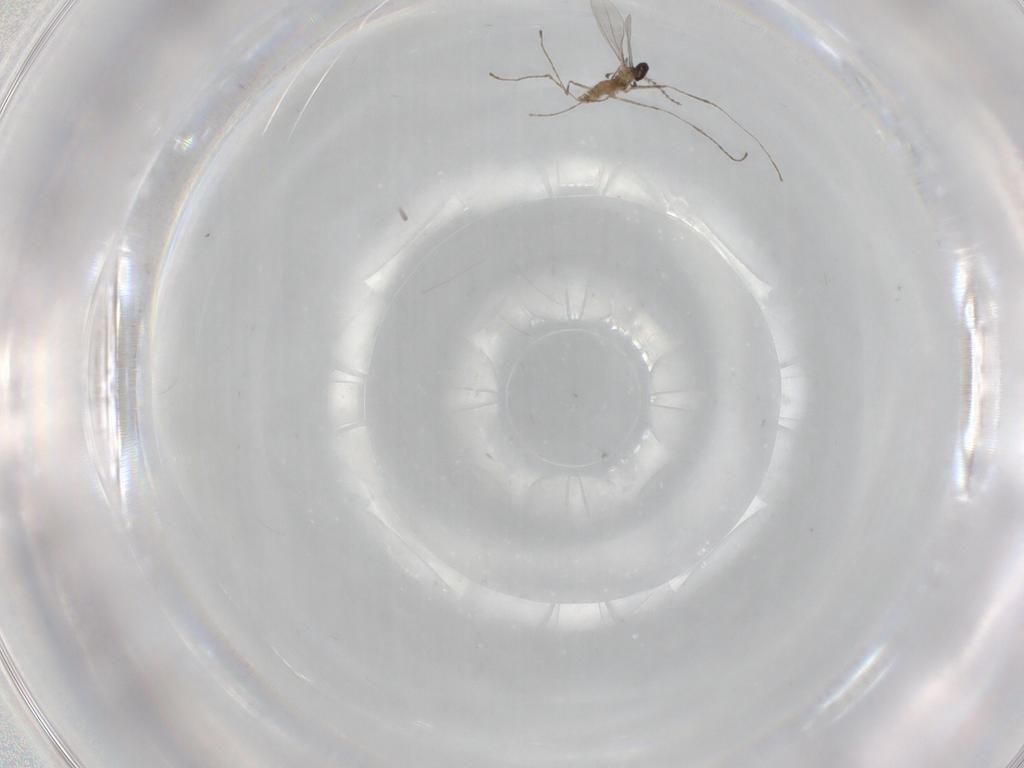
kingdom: Animalia
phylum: Arthropoda
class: Insecta
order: Diptera
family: Cecidomyiidae
